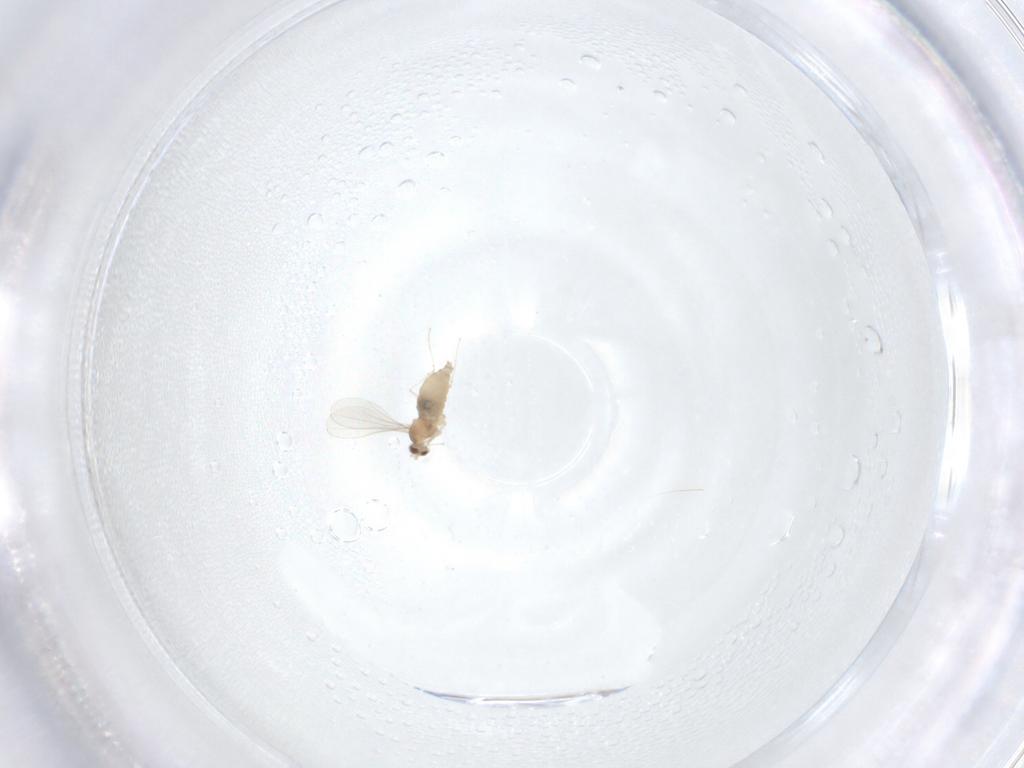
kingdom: Animalia
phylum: Arthropoda
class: Insecta
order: Diptera
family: Cecidomyiidae
